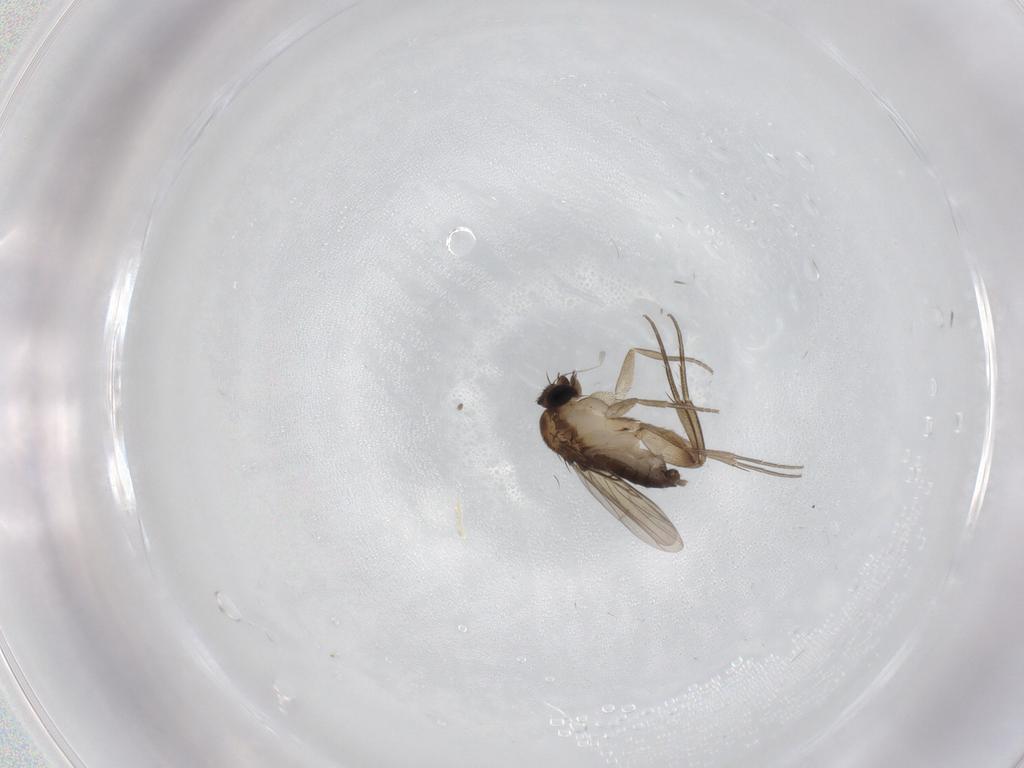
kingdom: Animalia
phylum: Arthropoda
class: Insecta
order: Diptera
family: Phoridae
